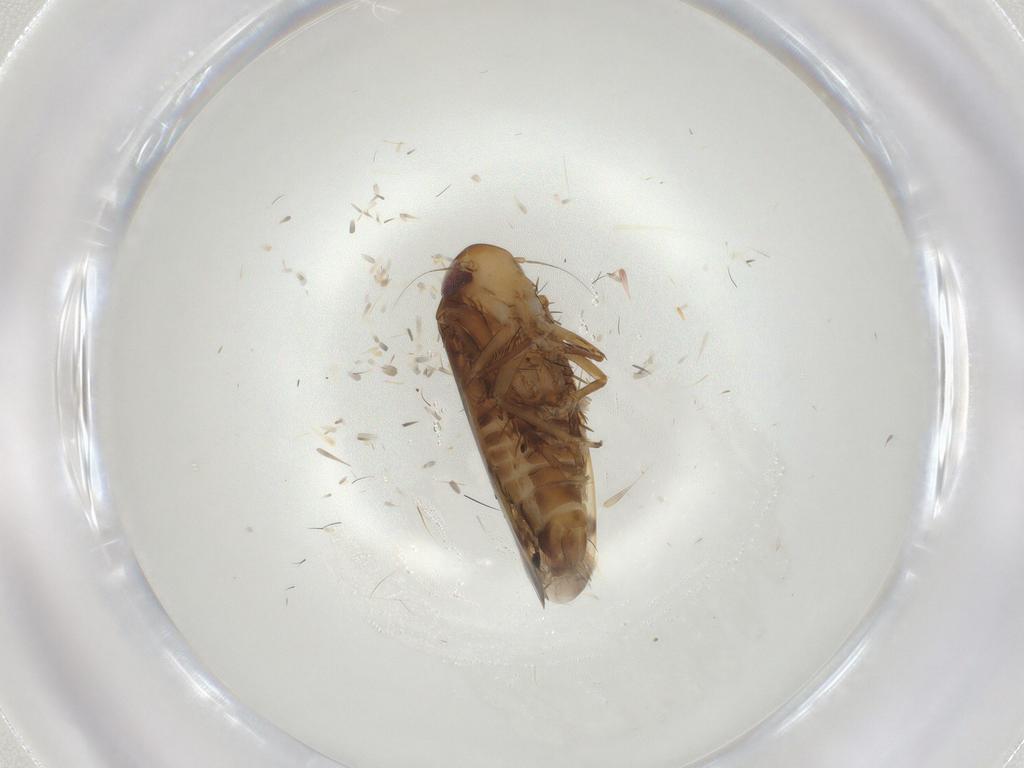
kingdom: Animalia
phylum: Arthropoda
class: Insecta
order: Hemiptera
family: Cicadellidae
